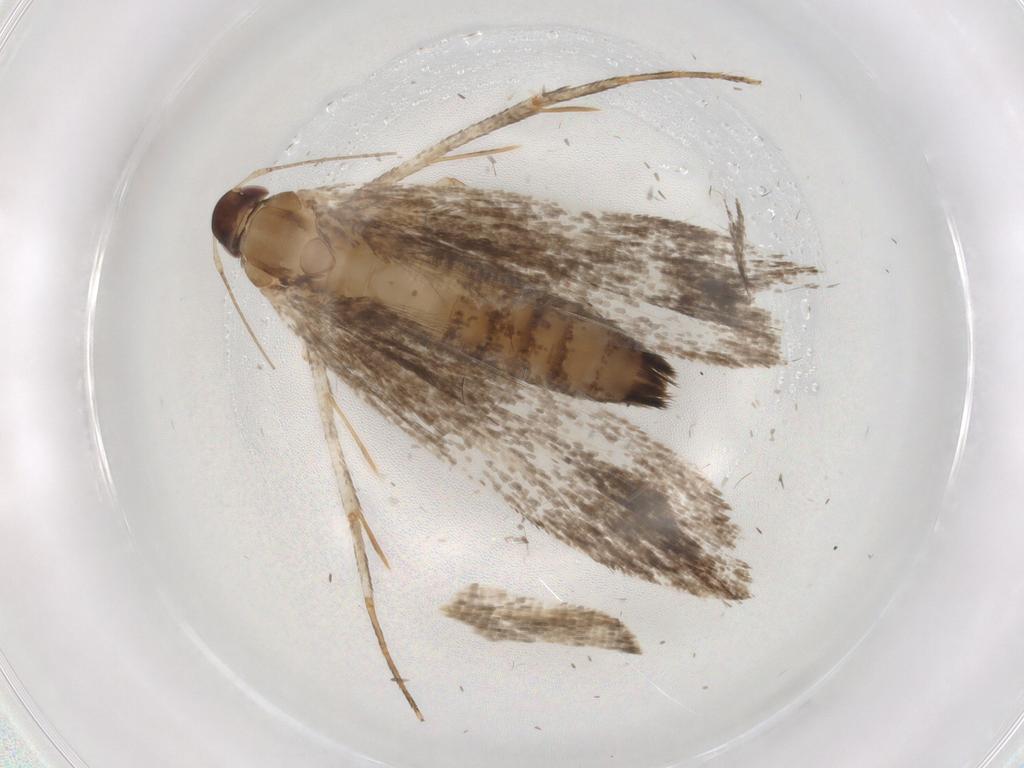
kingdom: Animalia
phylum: Arthropoda
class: Insecta
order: Lepidoptera
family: Gelechiidae
